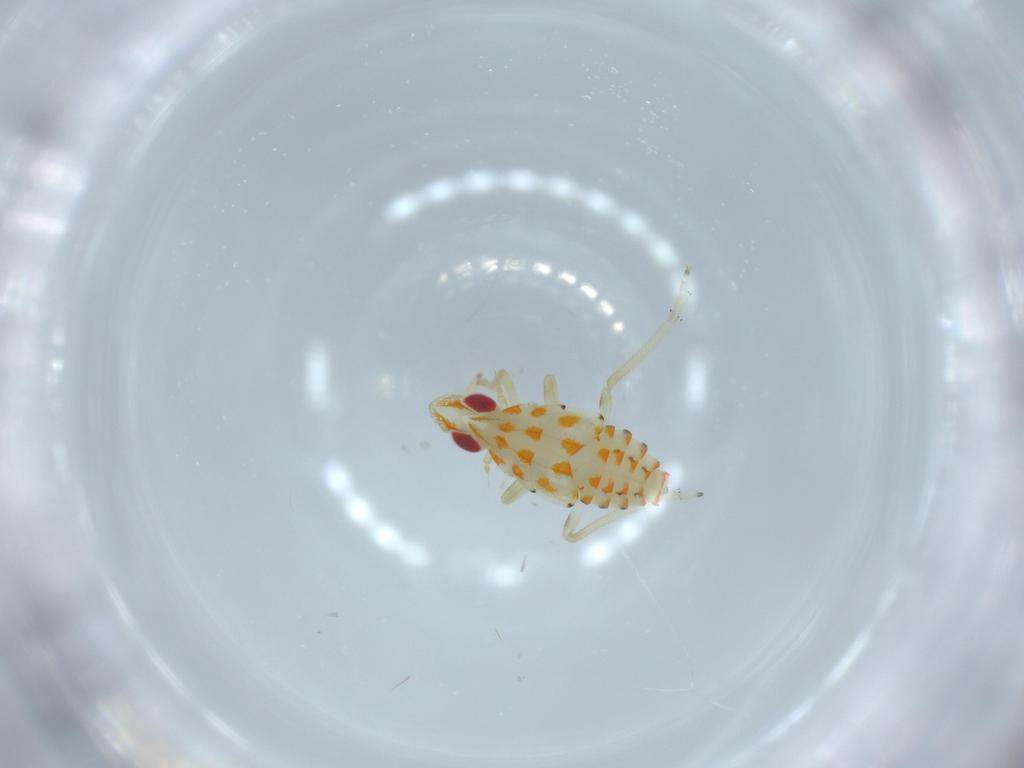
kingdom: Animalia
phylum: Arthropoda
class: Insecta
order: Hemiptera
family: Tropiduchidae
